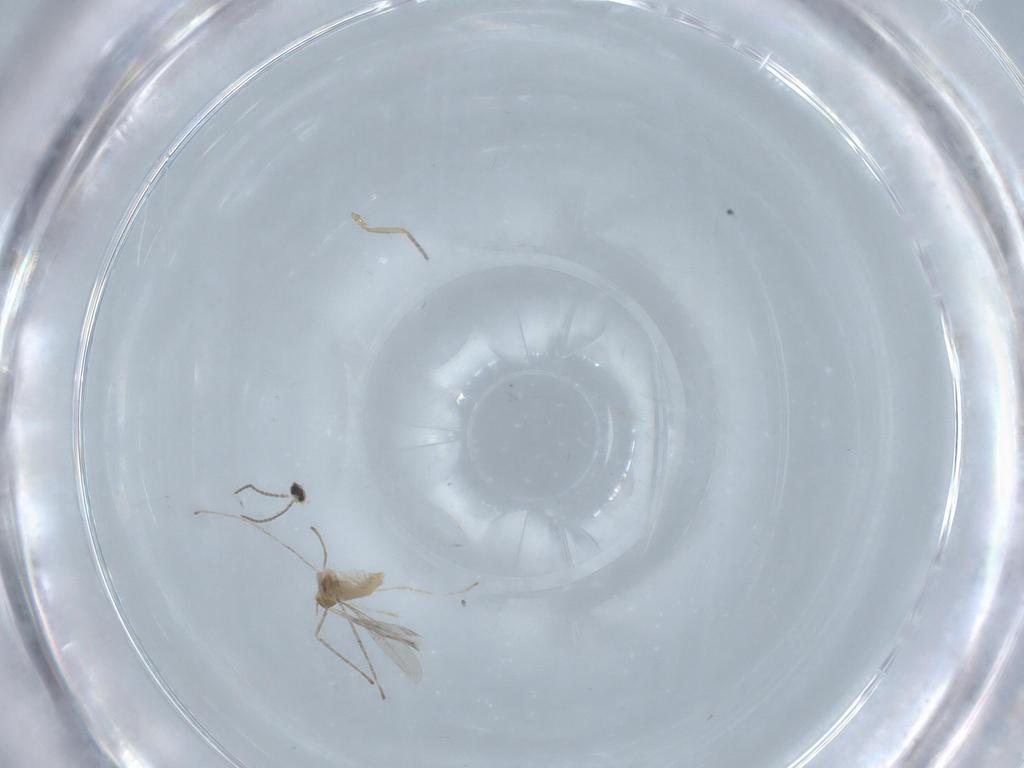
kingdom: Animalia
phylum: Arthropoda
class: Insecta
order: Diptera
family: Ceratopogonidae
